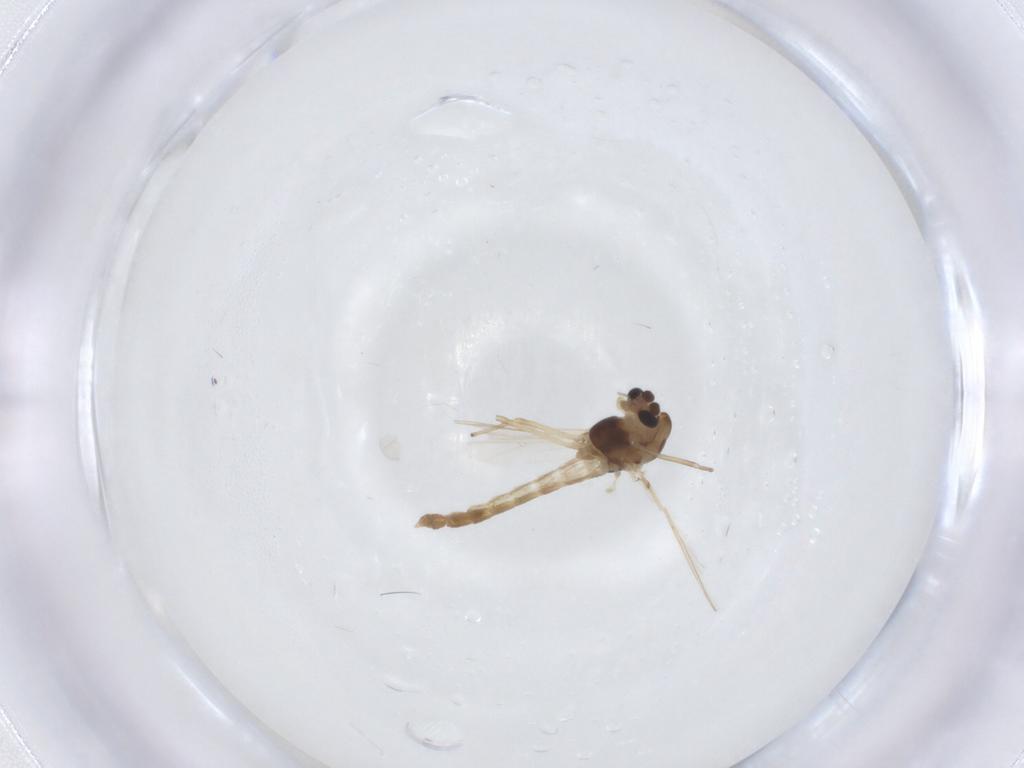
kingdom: Animalia
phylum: Arthropoda
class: Insecta
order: Diptera
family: Chironomidae
